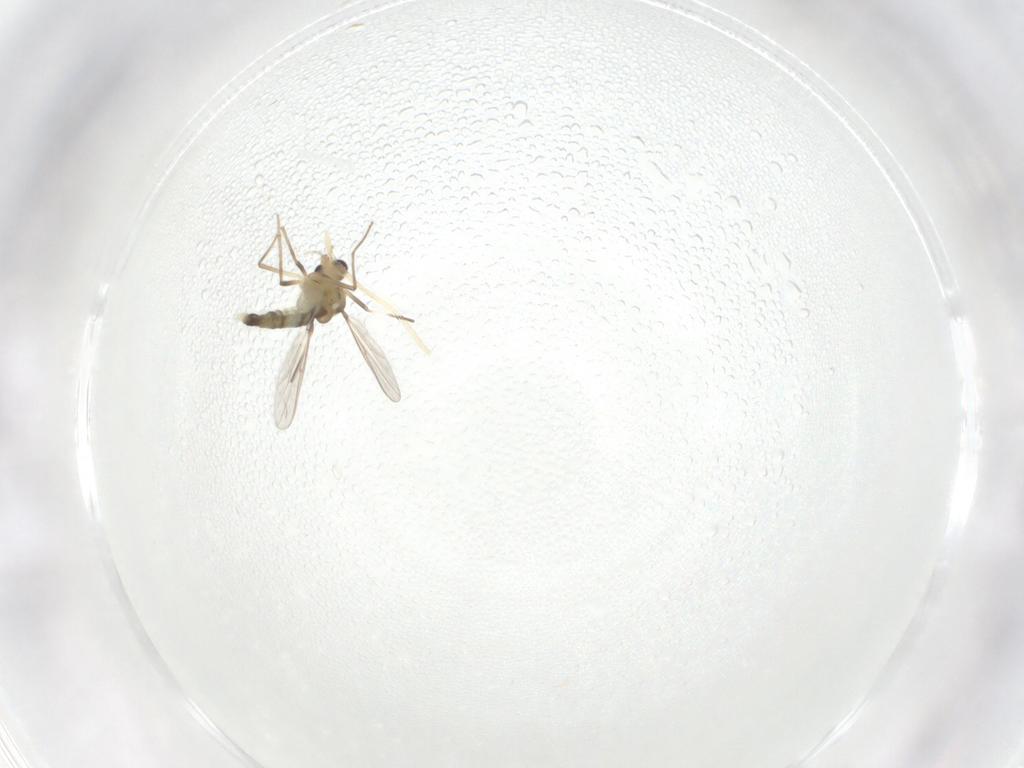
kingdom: Animalia
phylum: Arthropoda
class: Insecta
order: Diptera
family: Chironomidae
